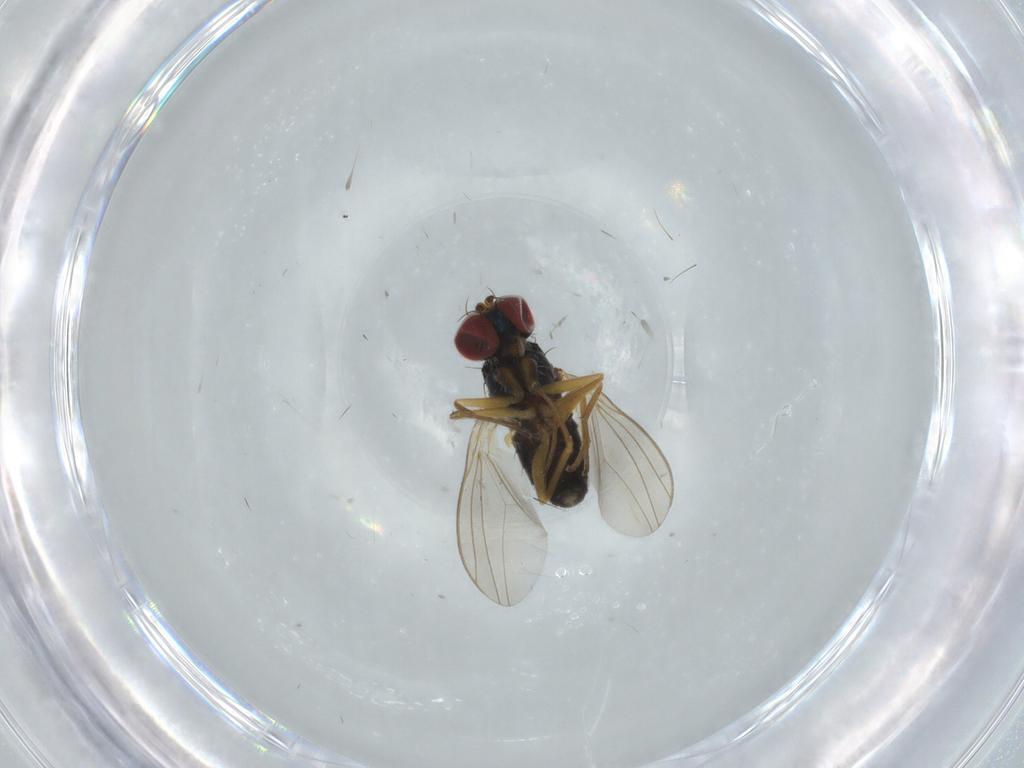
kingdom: Animalia
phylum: Arthropoda
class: Insecta
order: Diptera
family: Dolichopodidae
